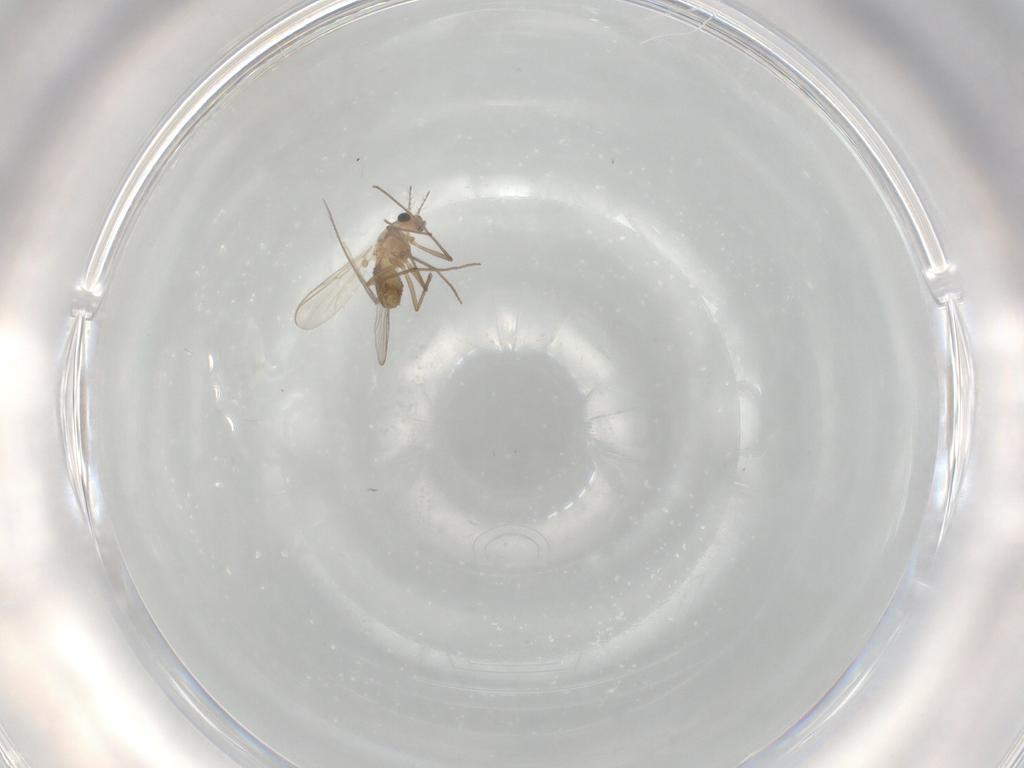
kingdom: Animalia
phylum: Arthropoda
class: Insecta
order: Diptera
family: Chironomidae
